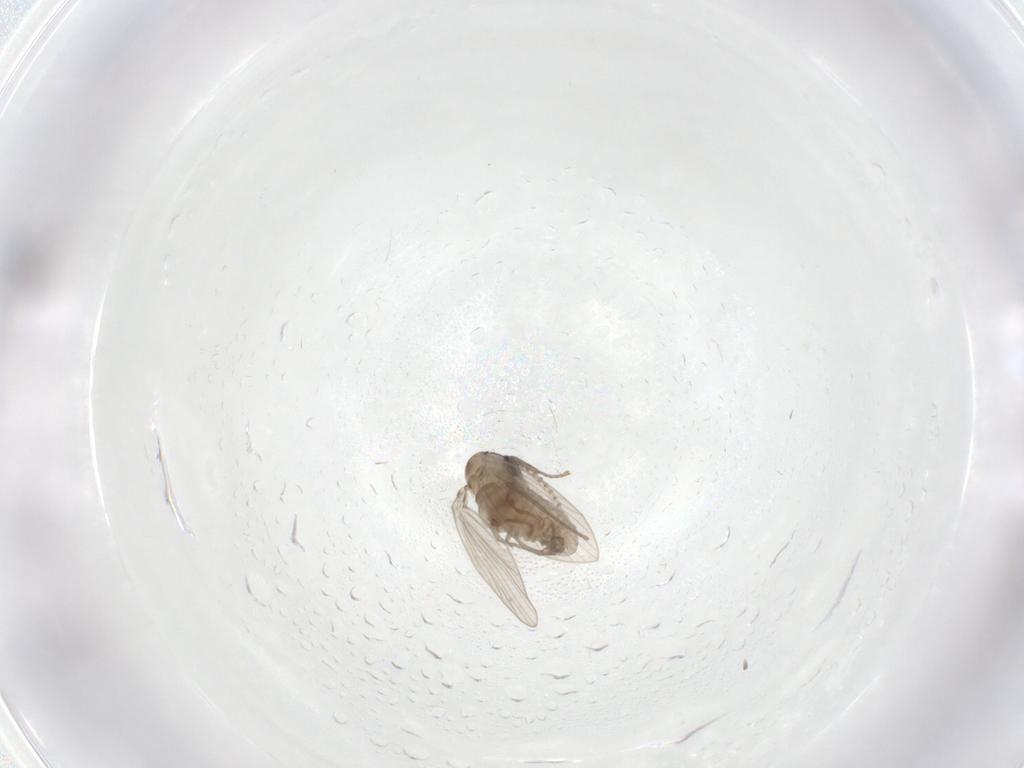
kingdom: Animalia
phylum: Arthropoda
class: Insecta
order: Diptera
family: Psychodidae
